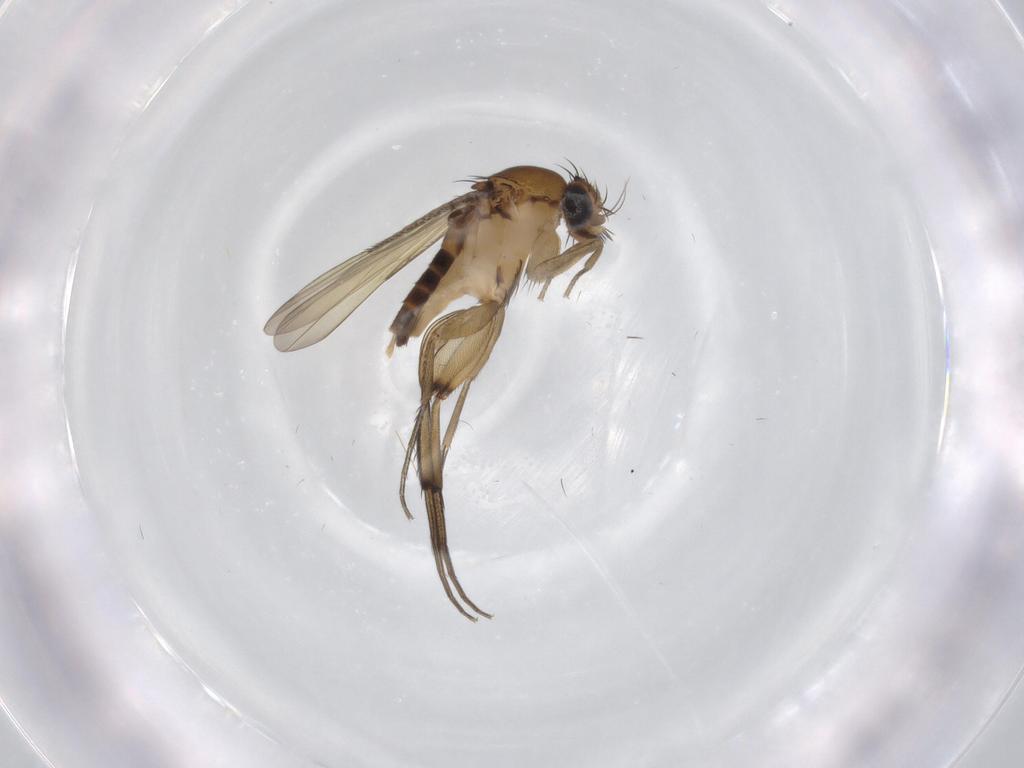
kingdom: Animalia
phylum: Arthropoda
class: Insecta
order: Diptera
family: Phoridae
